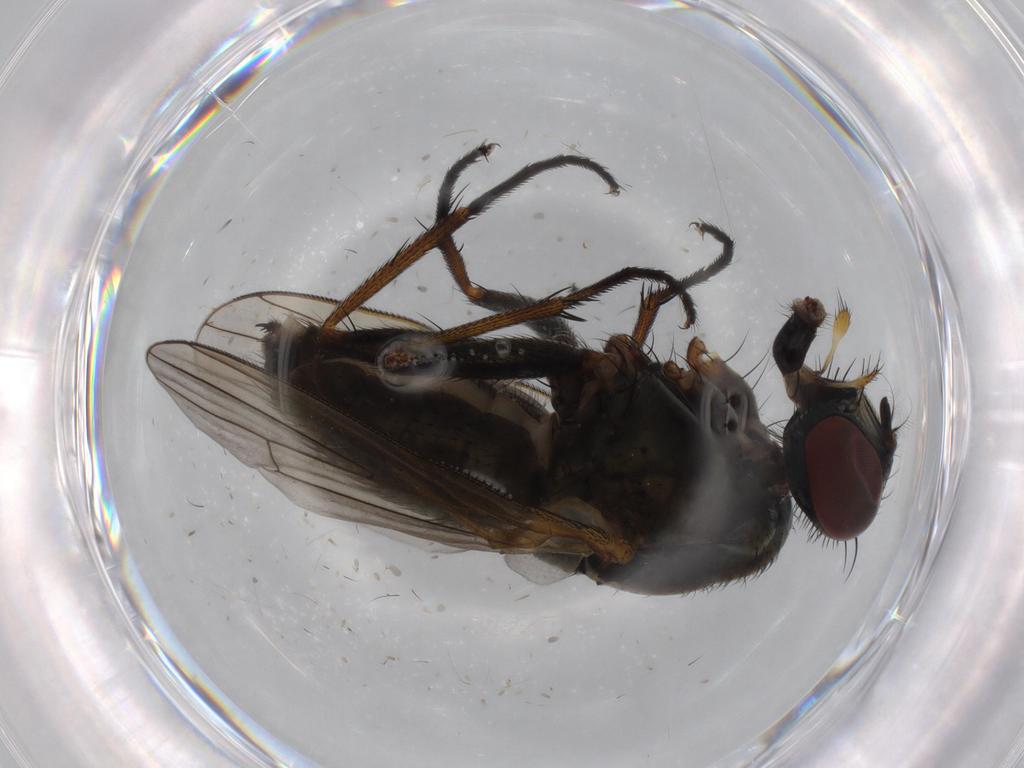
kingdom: Animalia
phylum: Arthropoda
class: Insecta
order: Diptera
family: Muscidae
